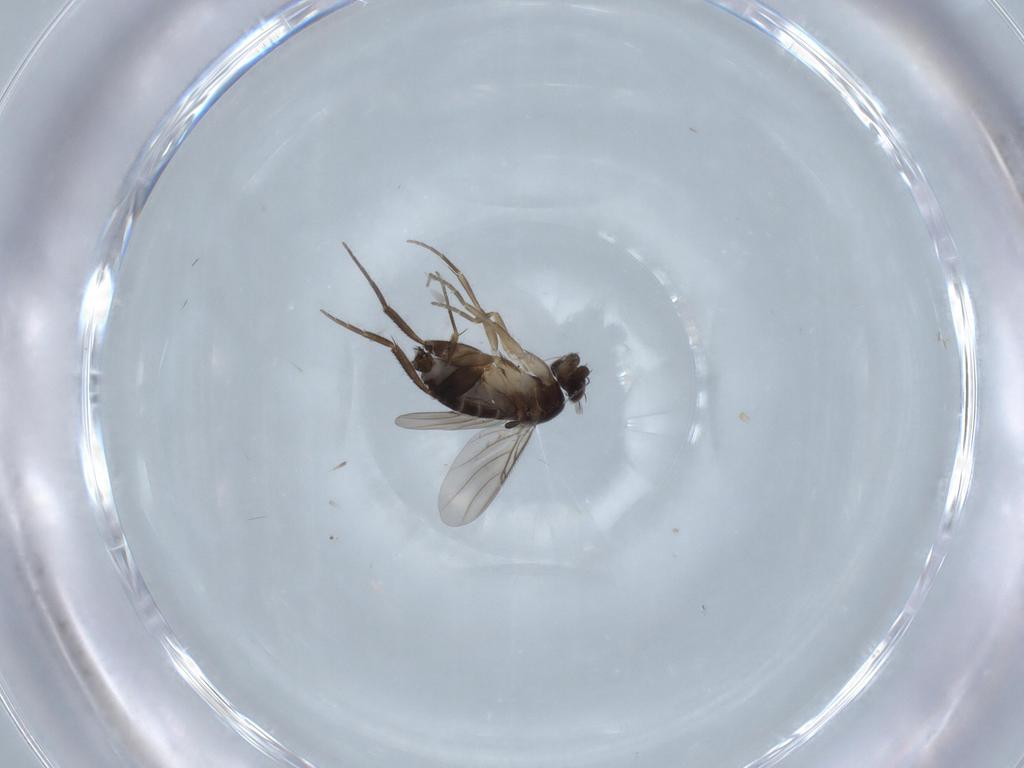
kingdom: Animalia
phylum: Arthropoda
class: Insecta
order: Diptera
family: Phoridae
